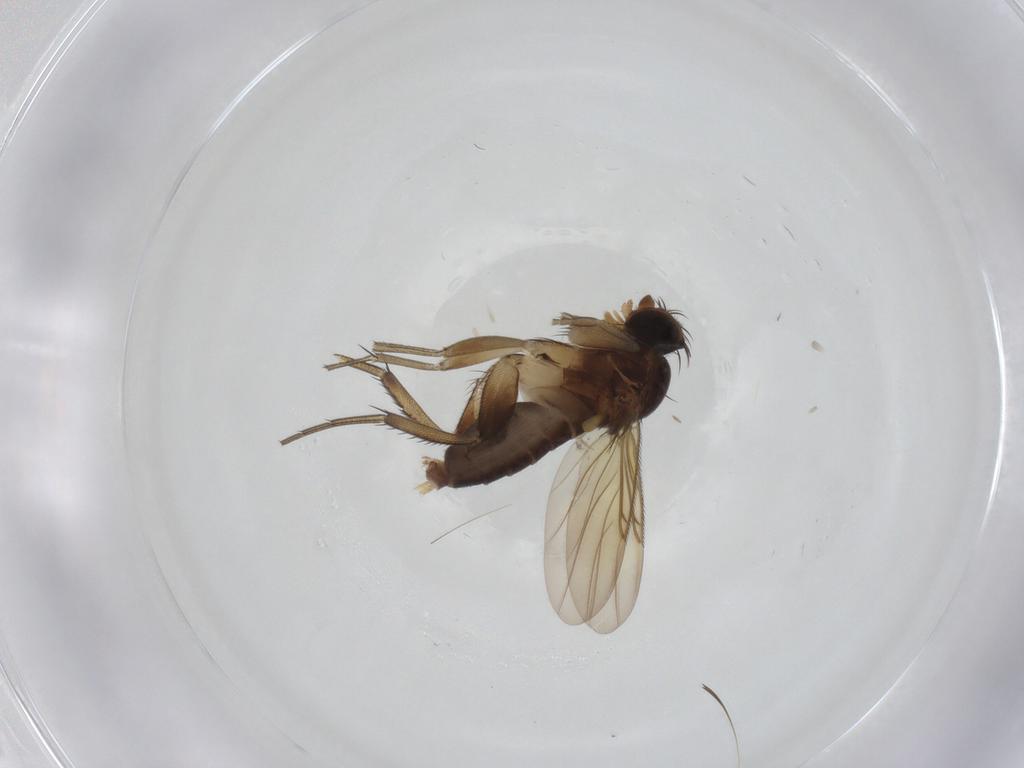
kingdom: Animalia
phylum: Arthropoda
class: Insecta
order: Diptera
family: Phoridae
